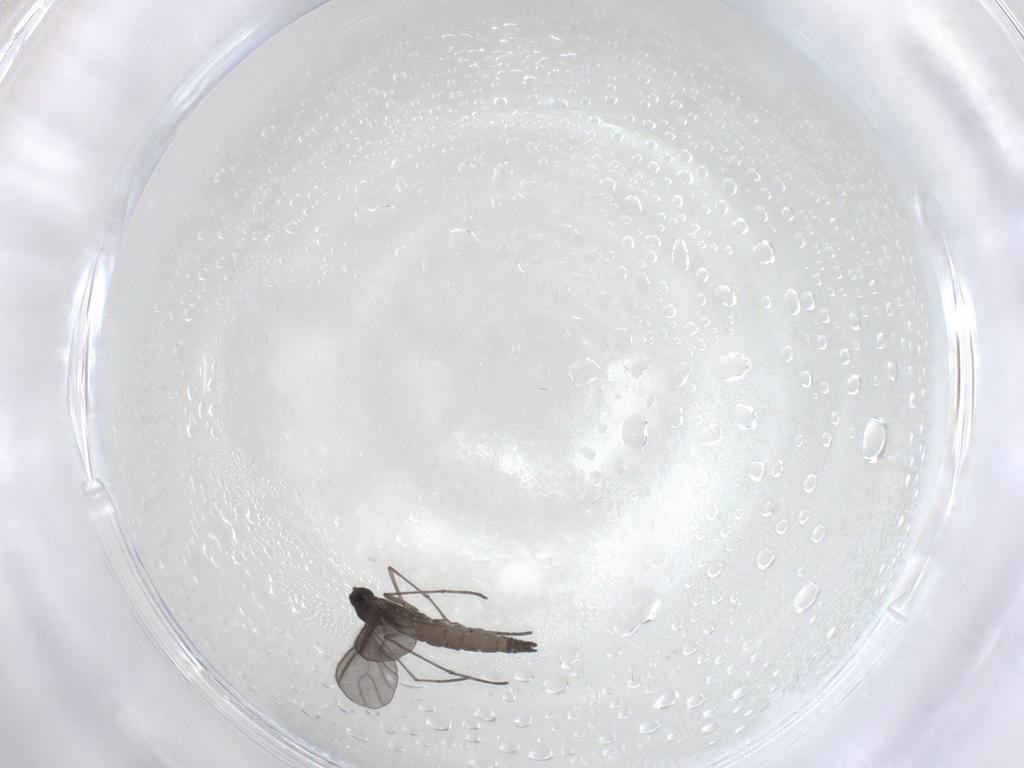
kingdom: Animalia
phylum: Arthropoda
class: Insecta
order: Diptera
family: Sciaridae
